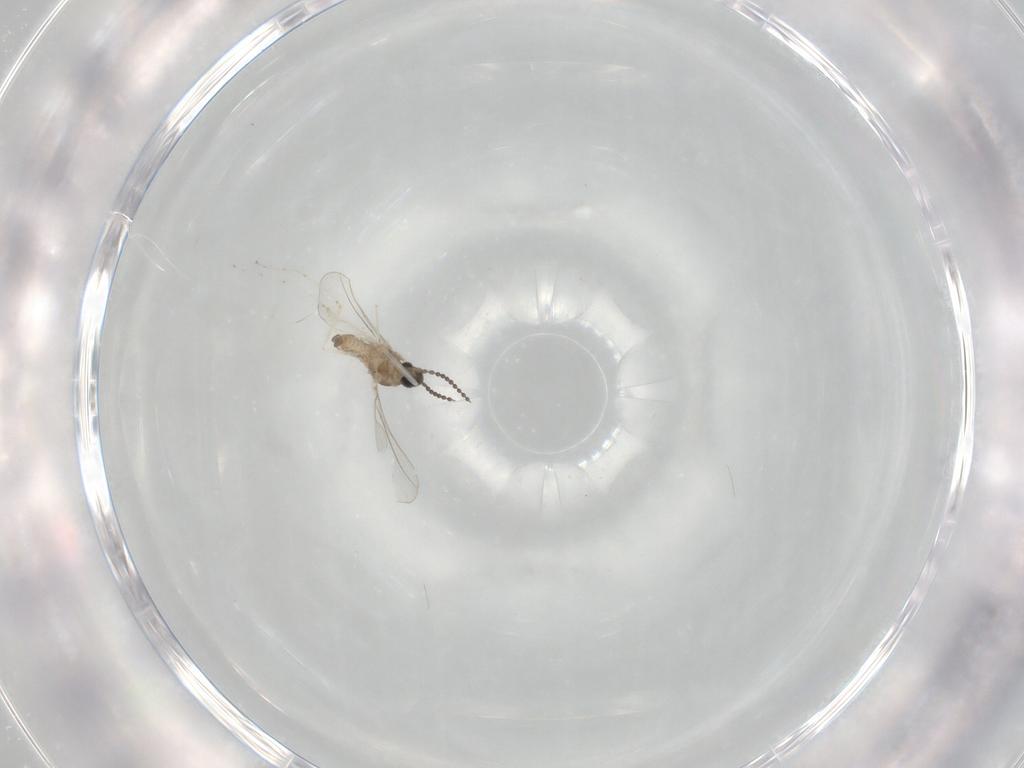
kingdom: Animalia
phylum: Arthropoda
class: Insecta
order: Diptera
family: Cecidomyiidae
